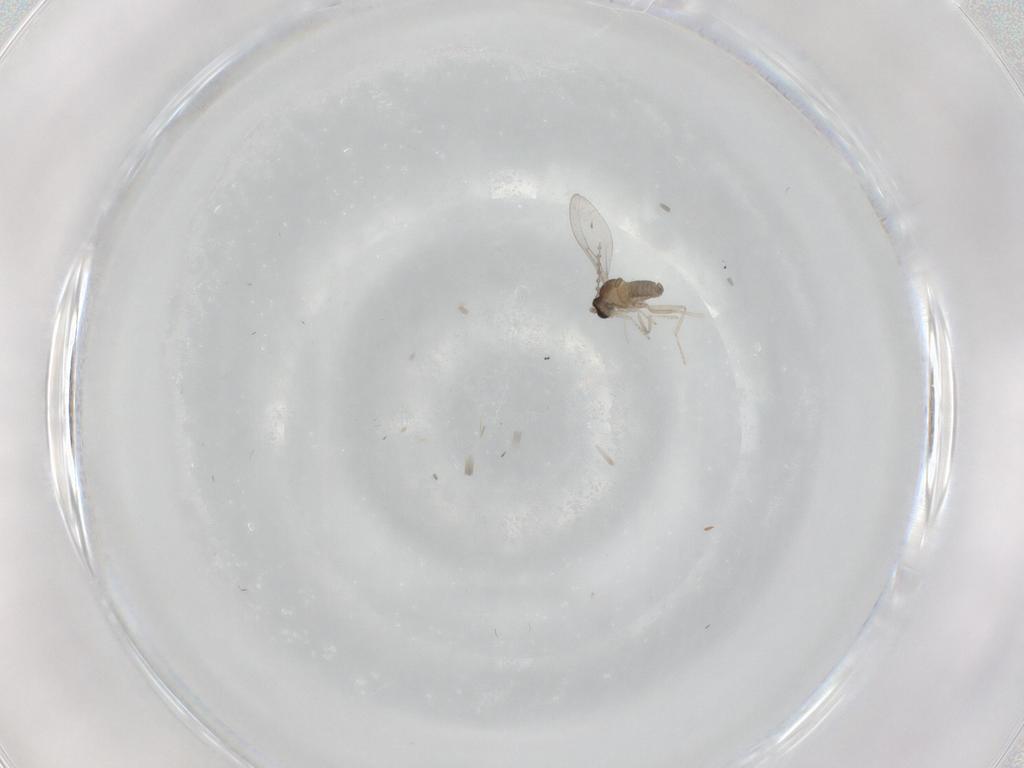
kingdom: Animalia
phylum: Arthropoda
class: Insecta
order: Diptera
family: Cecidomyiidae
